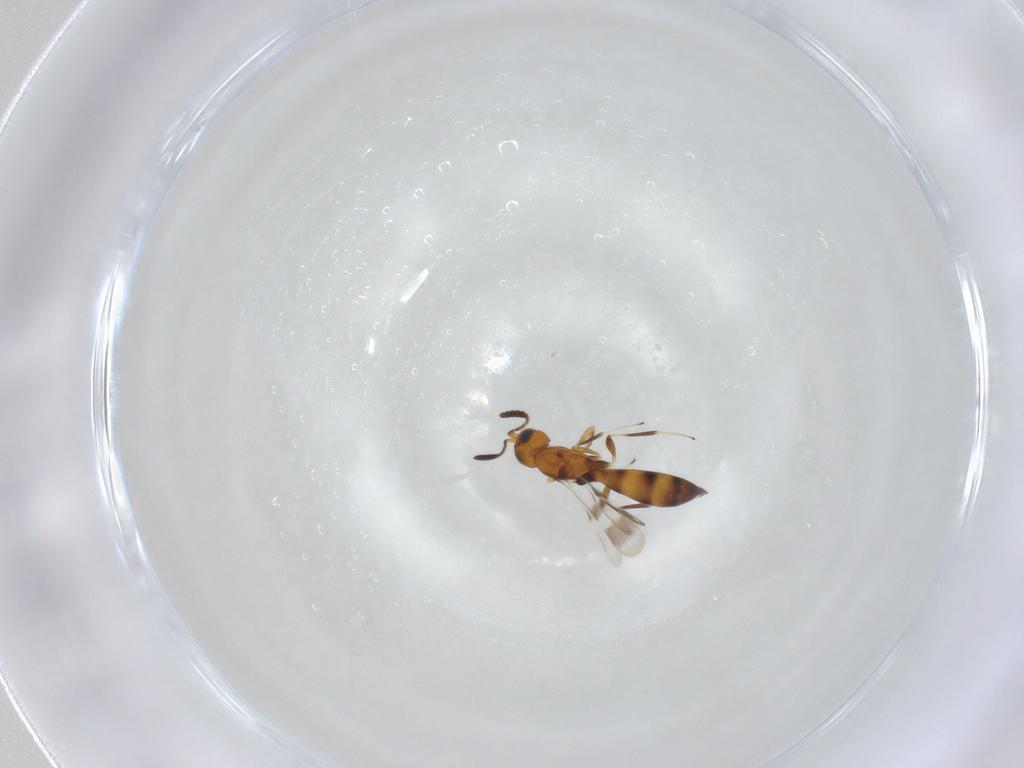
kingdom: Animalia
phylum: Arthropoda
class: Insecta
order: Hymenoptera
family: Scelionidae
